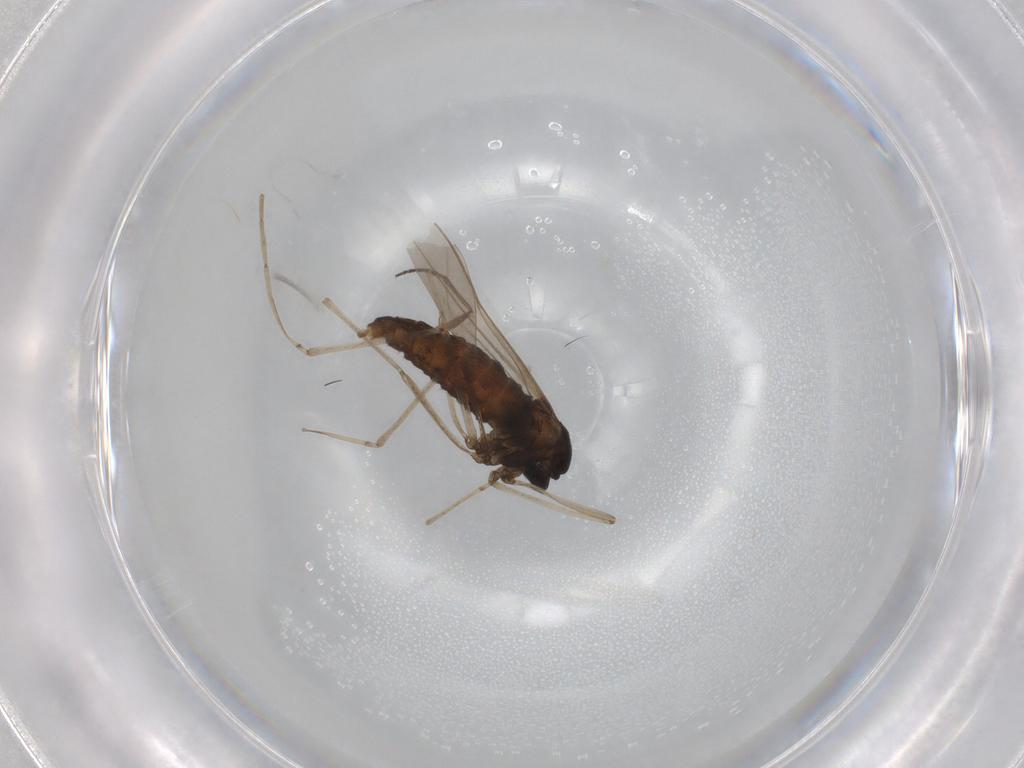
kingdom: Animalia
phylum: Arthropoda
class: Insecta
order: Diptera
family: Cecidomyiidae
